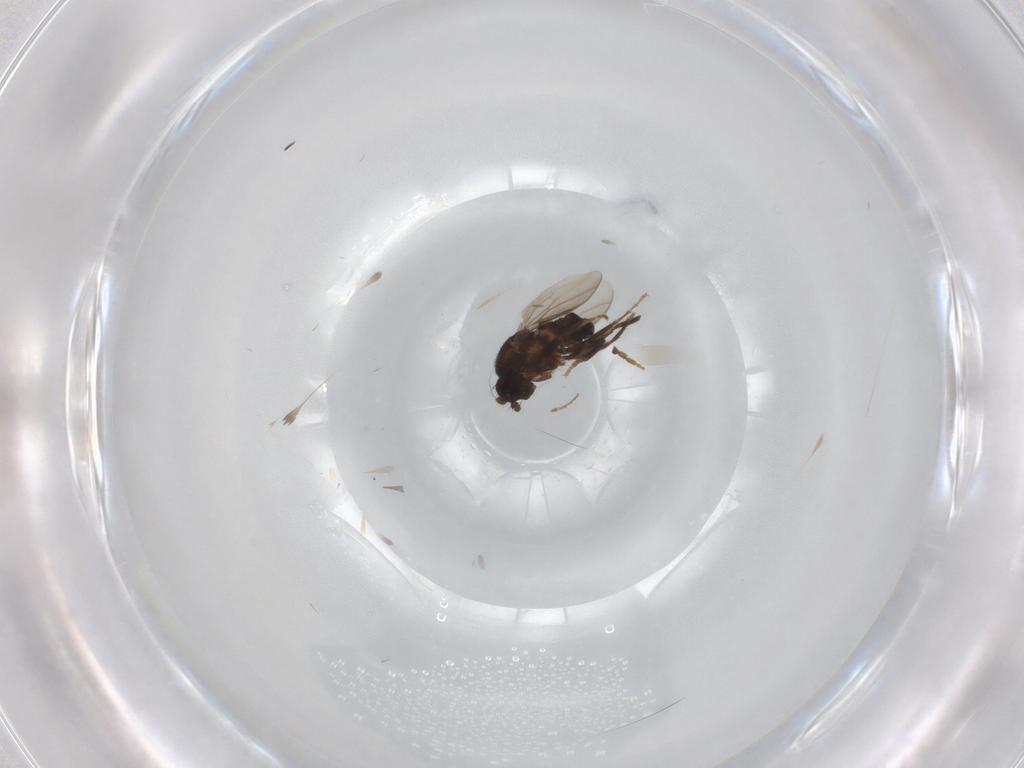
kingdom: Animalia
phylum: Arthropoda
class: Insecta
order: Diptera
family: Sphaeroceridae
